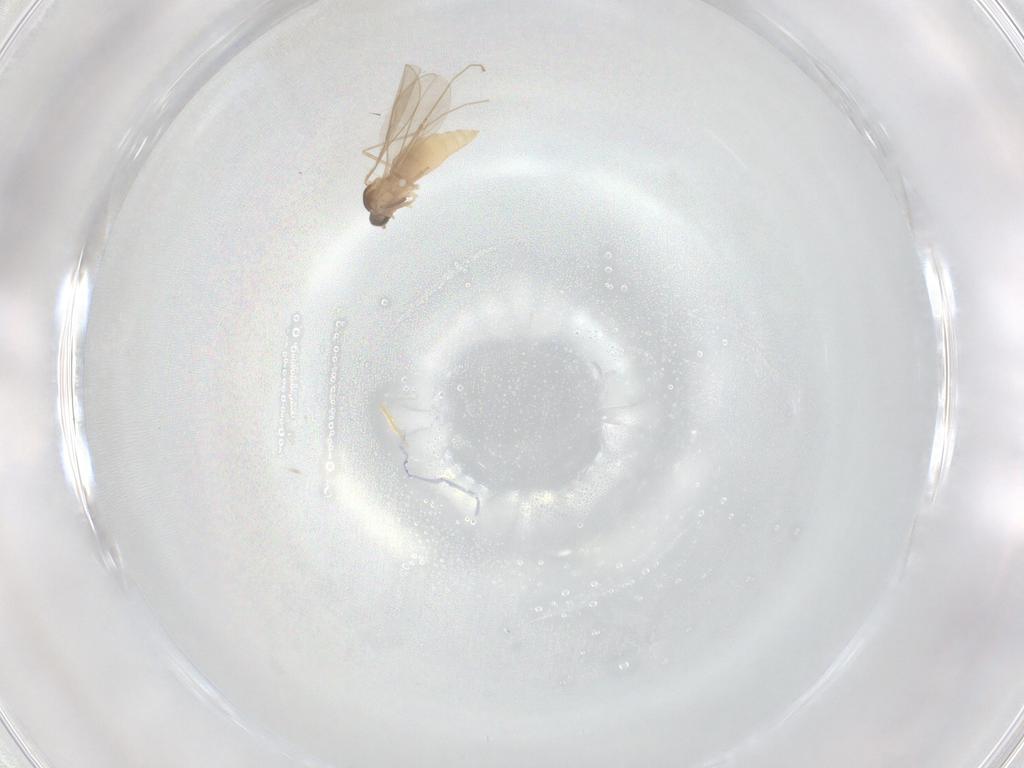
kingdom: Animalia
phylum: Arthropoda
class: Insecta
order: Diptera
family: Cecidomyiidae
